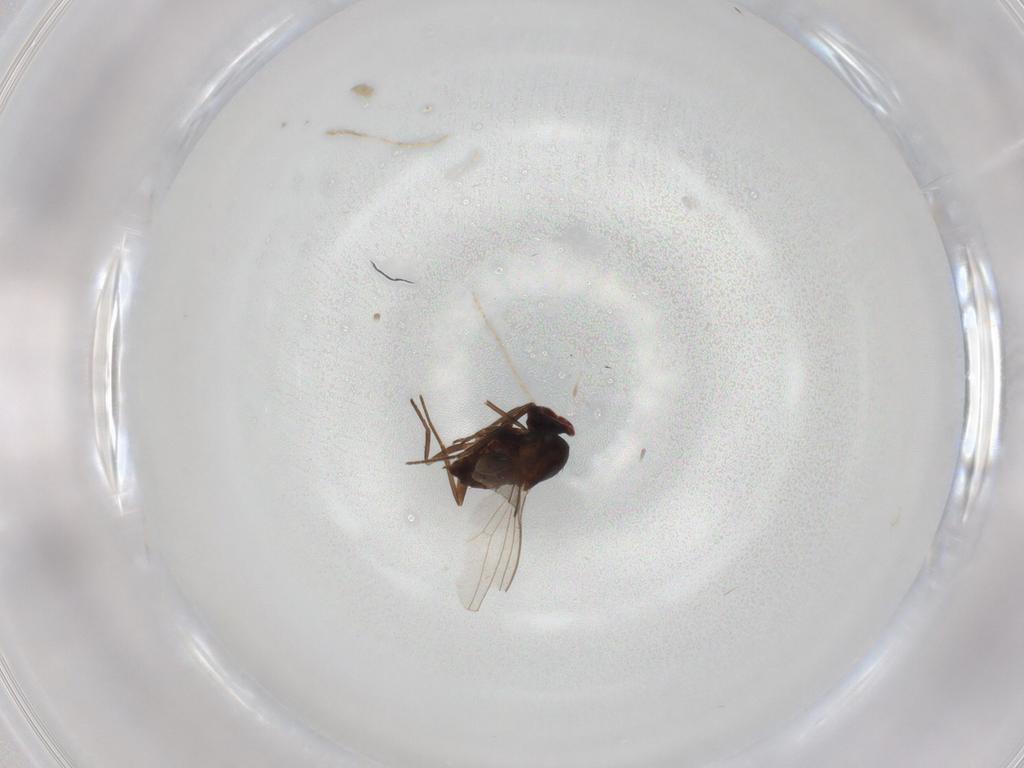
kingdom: Animalia
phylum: Arthropoda
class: Insecta
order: Diptera
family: Dolichopodidae
